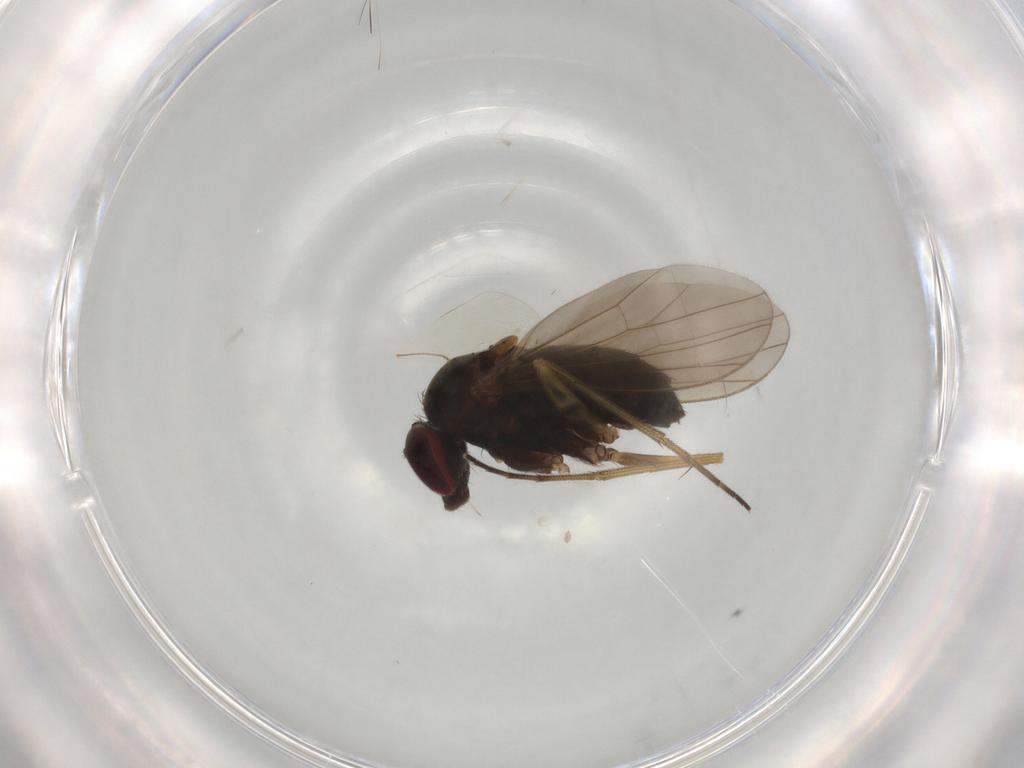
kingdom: Animalia
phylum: Arthropoda
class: Insecta
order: Diptera
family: Dolichopodidae
